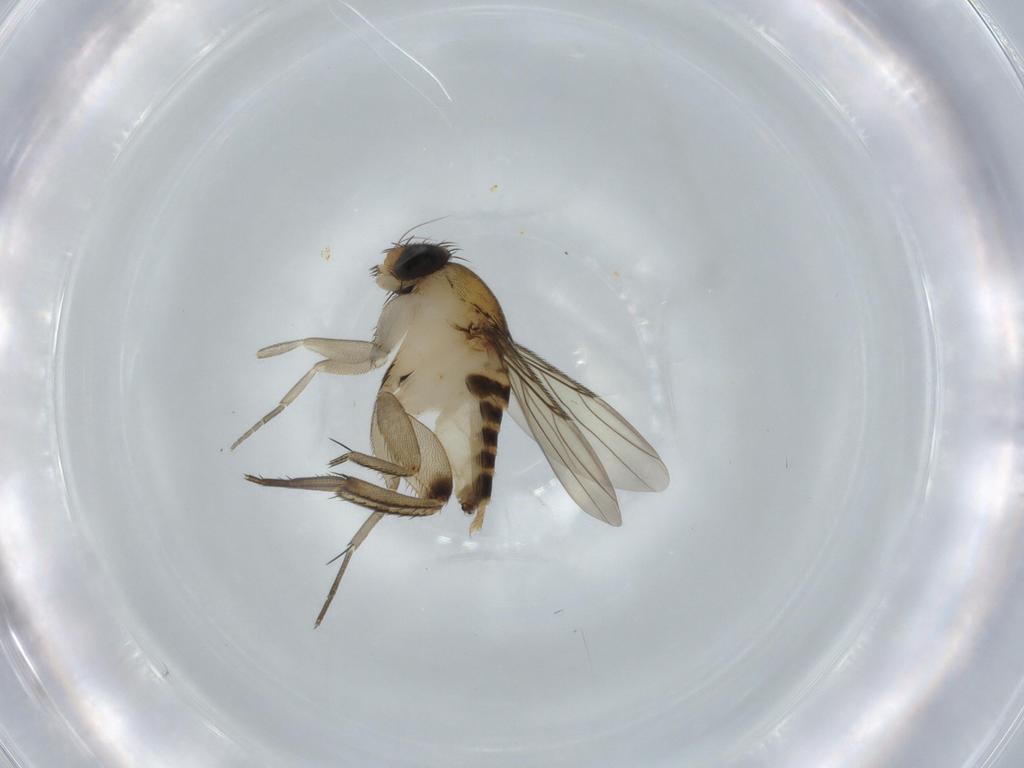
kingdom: Animalia
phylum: Arthropoda
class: Insecta
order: Diptera
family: Phoridae
